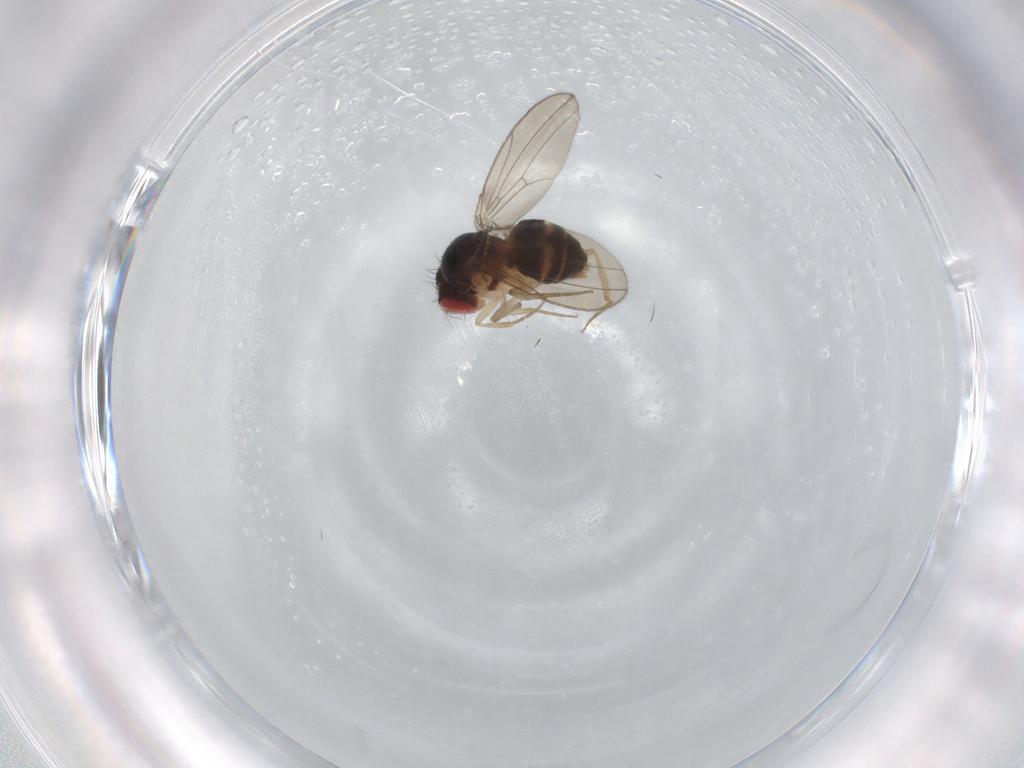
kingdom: Animalia
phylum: Arthropoda
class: Insecta
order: Diptera
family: Drosophilidae
